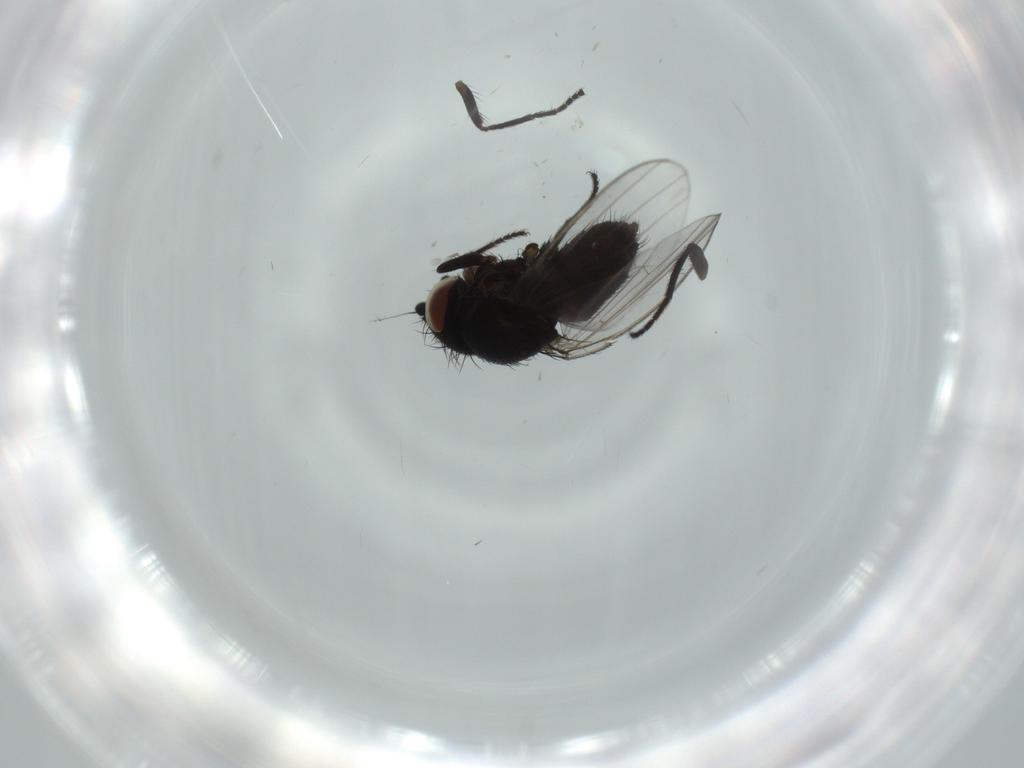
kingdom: Animalia
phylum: Arthropoda
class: Insecta
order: Diptera
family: Milichiidae
